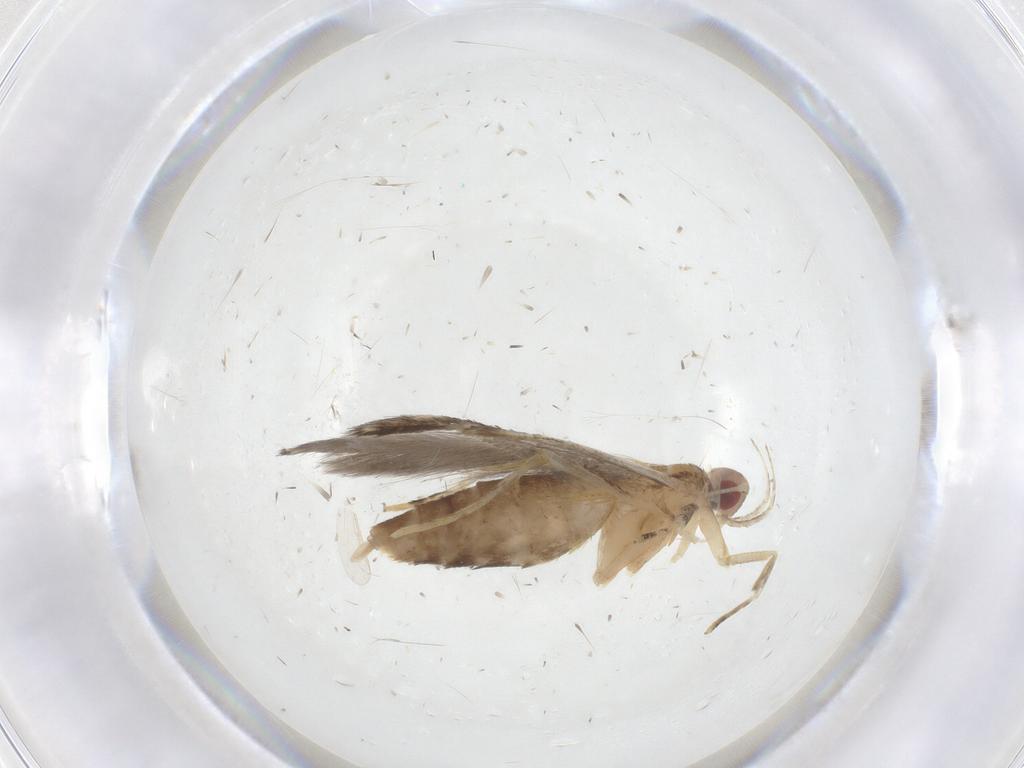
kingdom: Animalia
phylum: Arthropoda
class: Insecta
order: Lepidoptera
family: Cosmopterigidae
